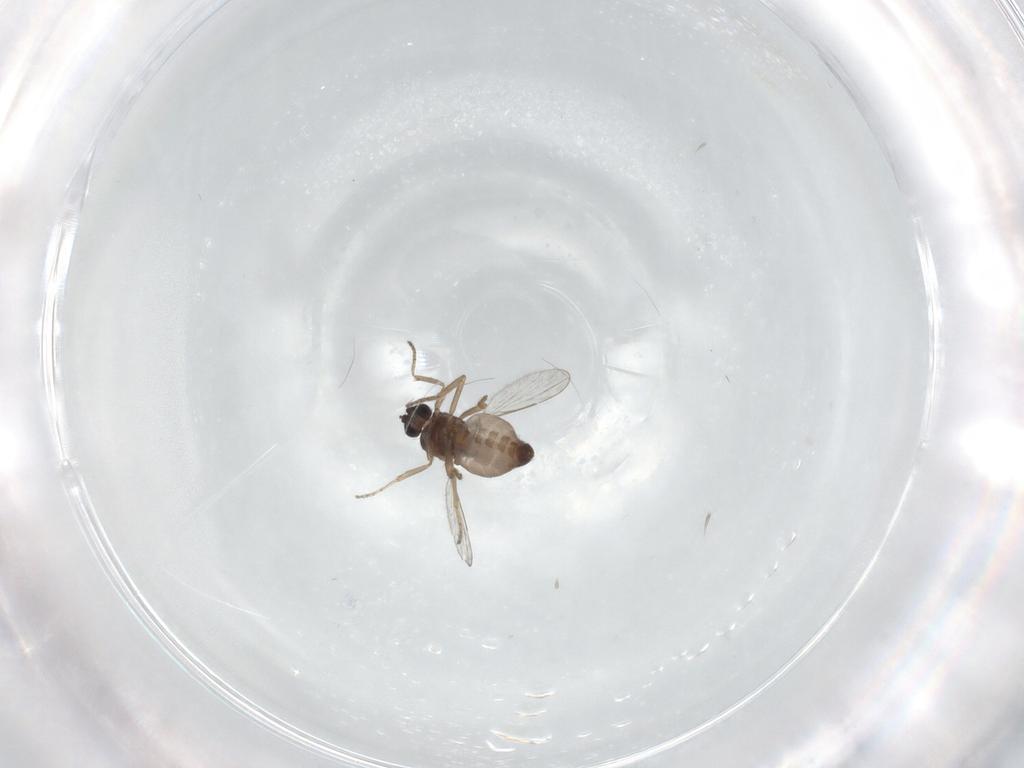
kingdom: Animalia
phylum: Arthropoda
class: Insecta
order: Diptera
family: Ceratopogonidae
